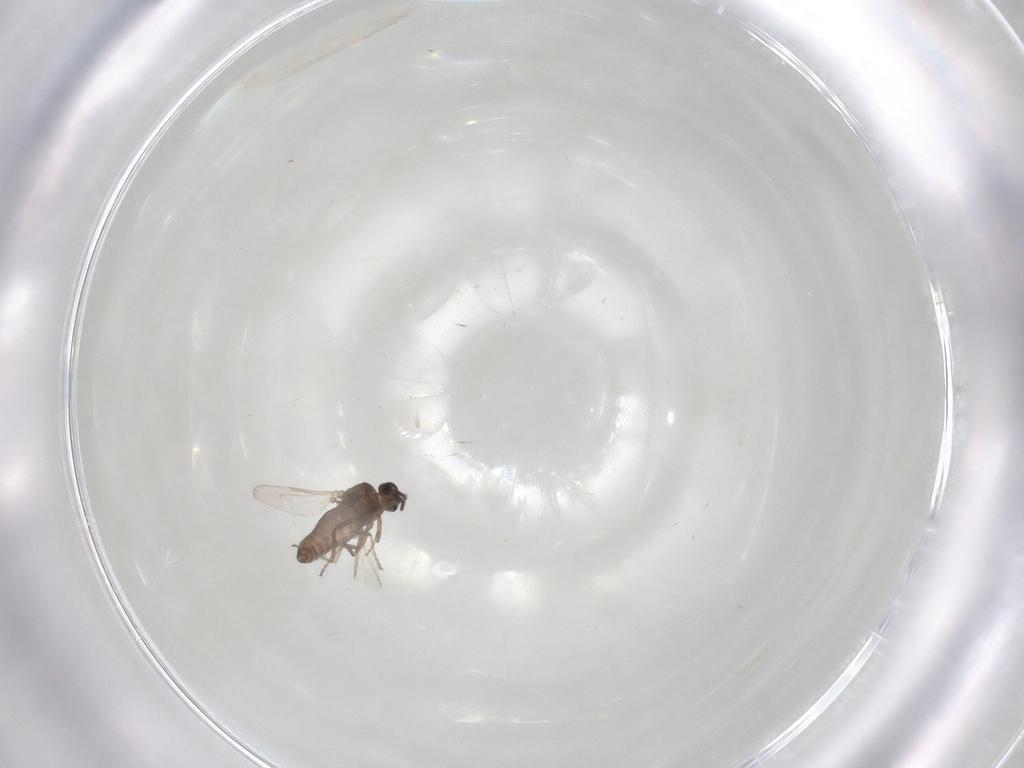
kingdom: Animalia
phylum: Arthropoda
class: Insecta
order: Diptera
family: Ceratopogonidae
